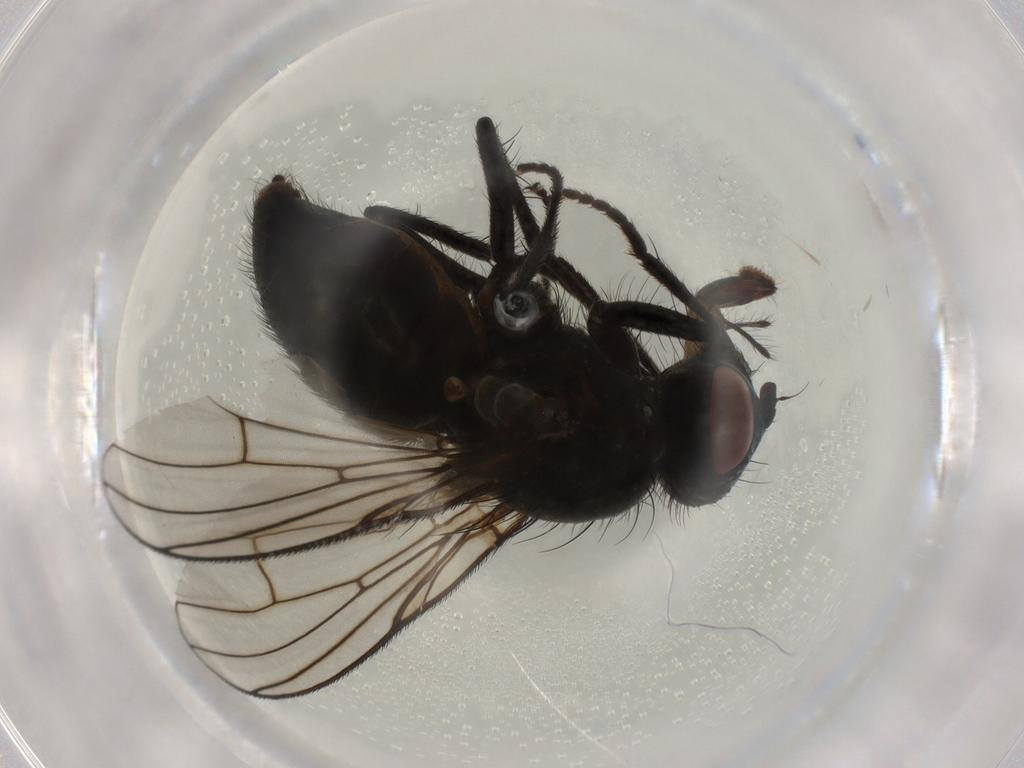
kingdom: Animalia
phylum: Arthropoda
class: Insecta
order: Diptera
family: Muscidae
